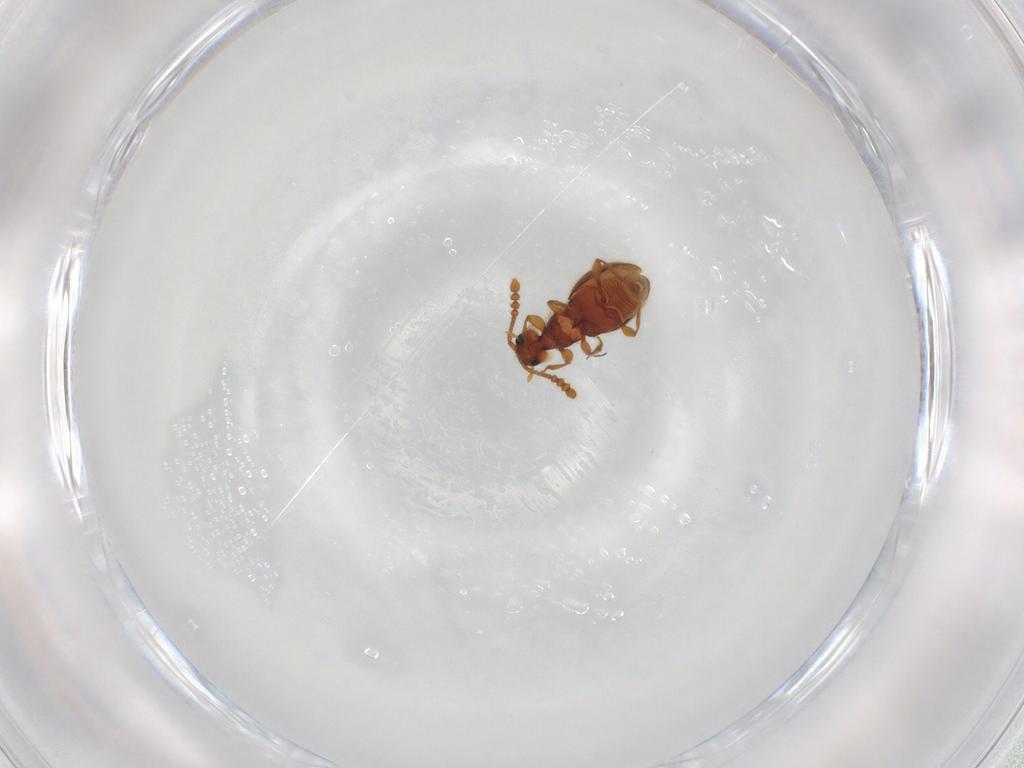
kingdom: Animalia
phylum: Arthropoda
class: Insecta
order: Coleoptera
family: Staphylinidae
